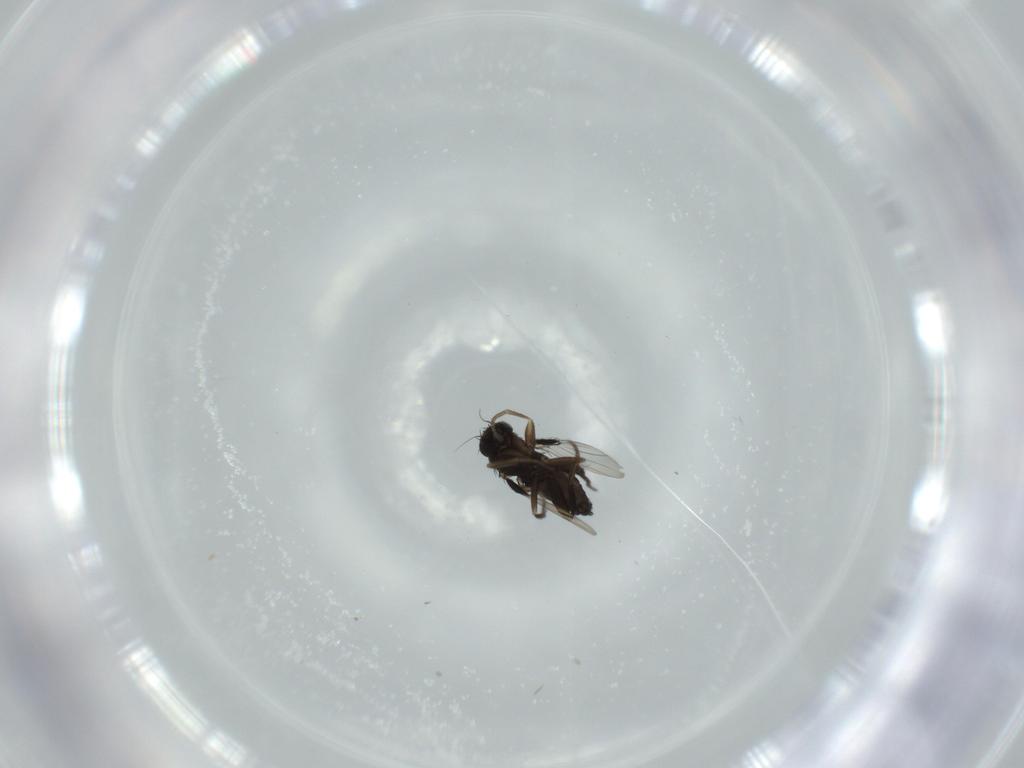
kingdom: Animalia
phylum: Arthropoda
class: Insecta
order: Diptera
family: Phoridae
